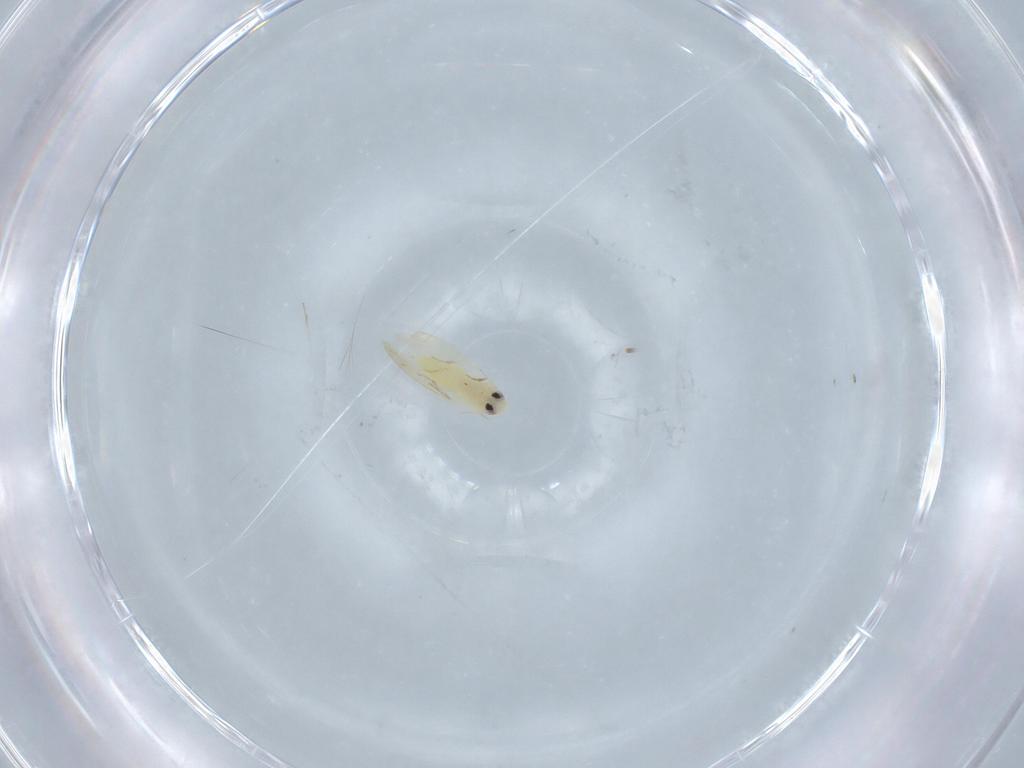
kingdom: Animalia
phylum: Arthropoda
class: Insecta
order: Hemiptera
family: Aleyrodidae
